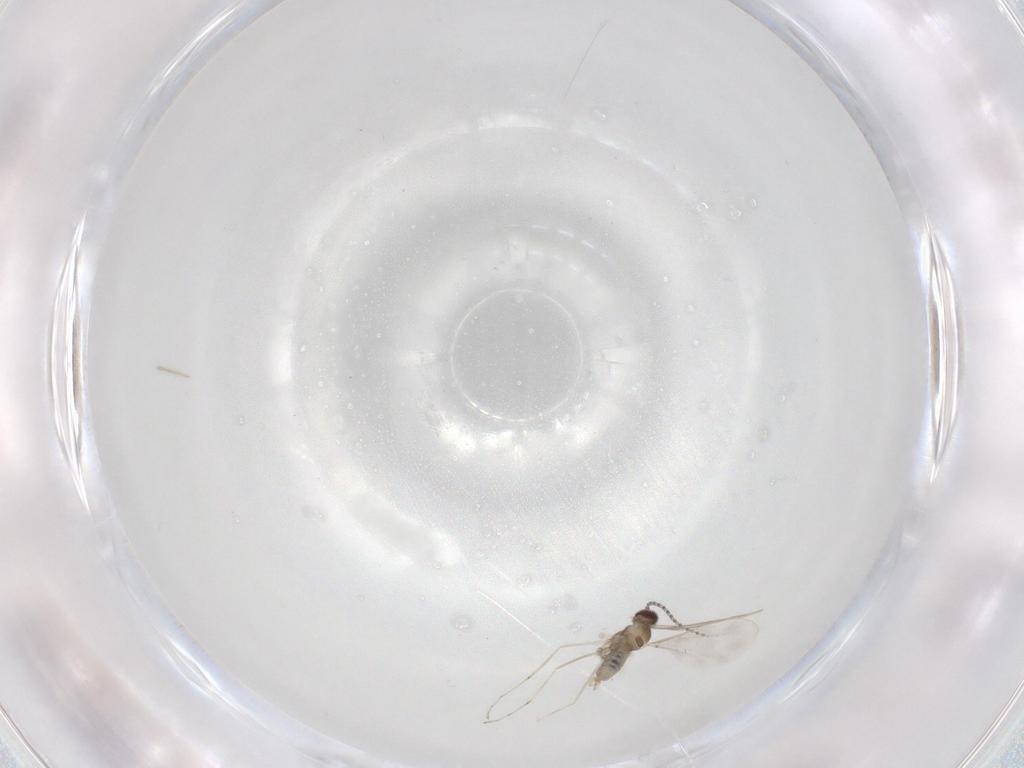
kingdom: Animalia
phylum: Arthropoda
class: Insecta
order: Diptera
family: Cecidomyiidae
